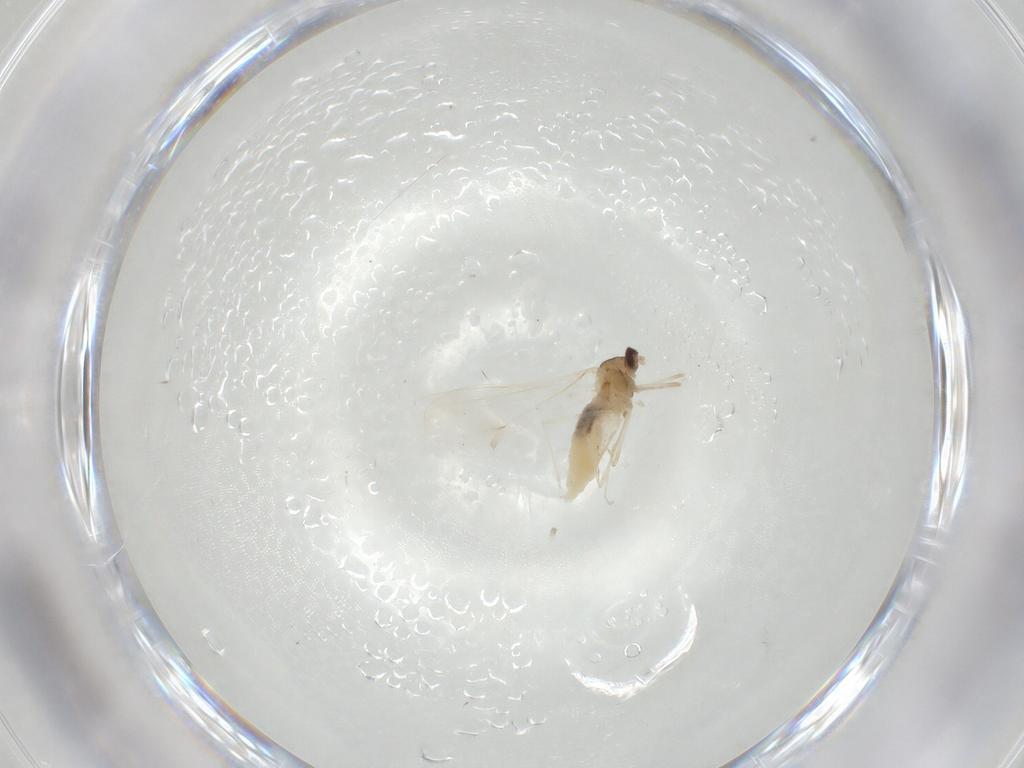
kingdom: Animalia
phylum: Arthropoda
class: Insecta
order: Diptera
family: Cecidomyiidae
